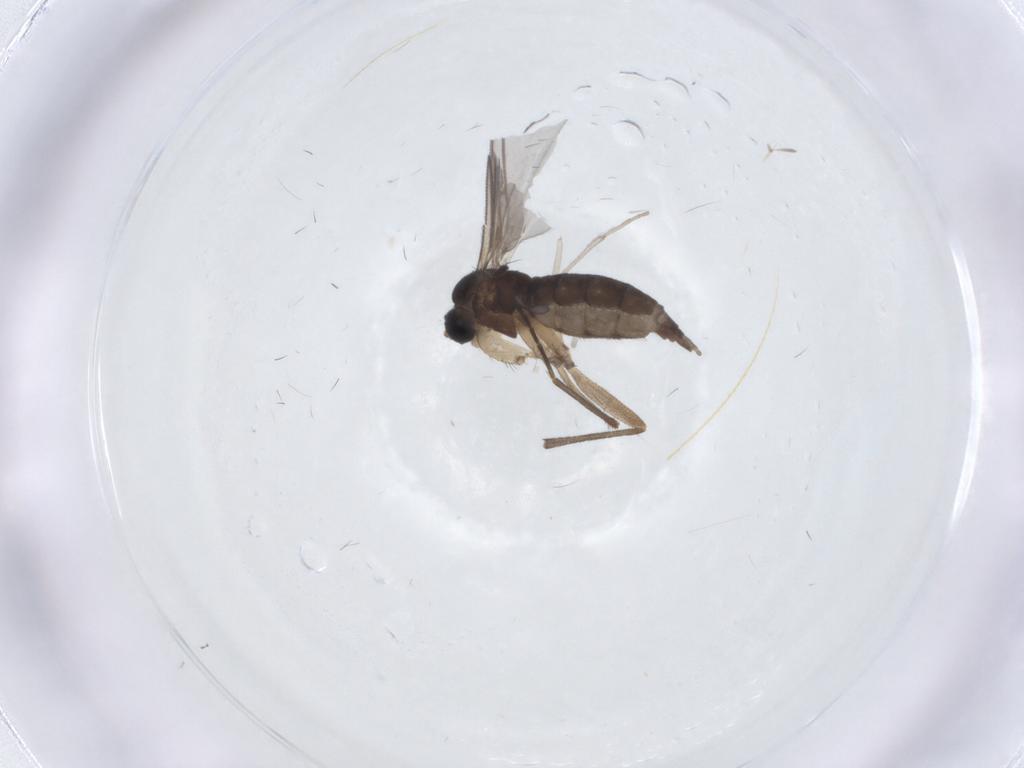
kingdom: Animalia
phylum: Arthropoda
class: Insecta
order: Diptera
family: Sciaridae
